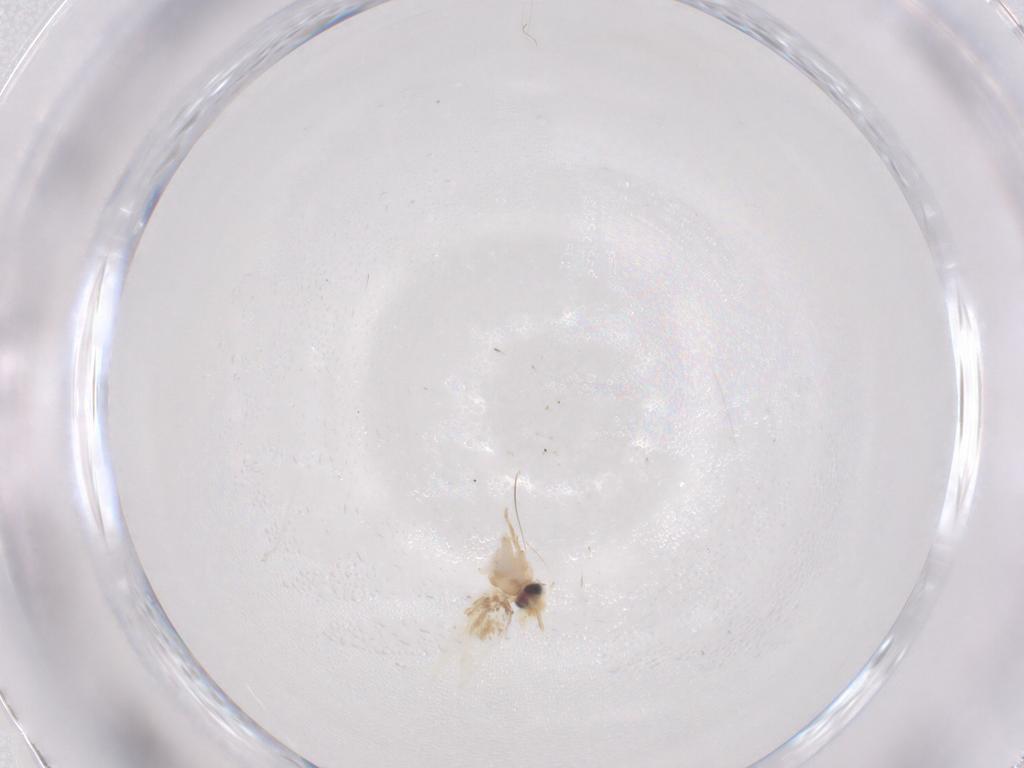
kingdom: Animalia
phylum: Arthropoda
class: Insecta
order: Lepidoptera
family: Nepticulidae
